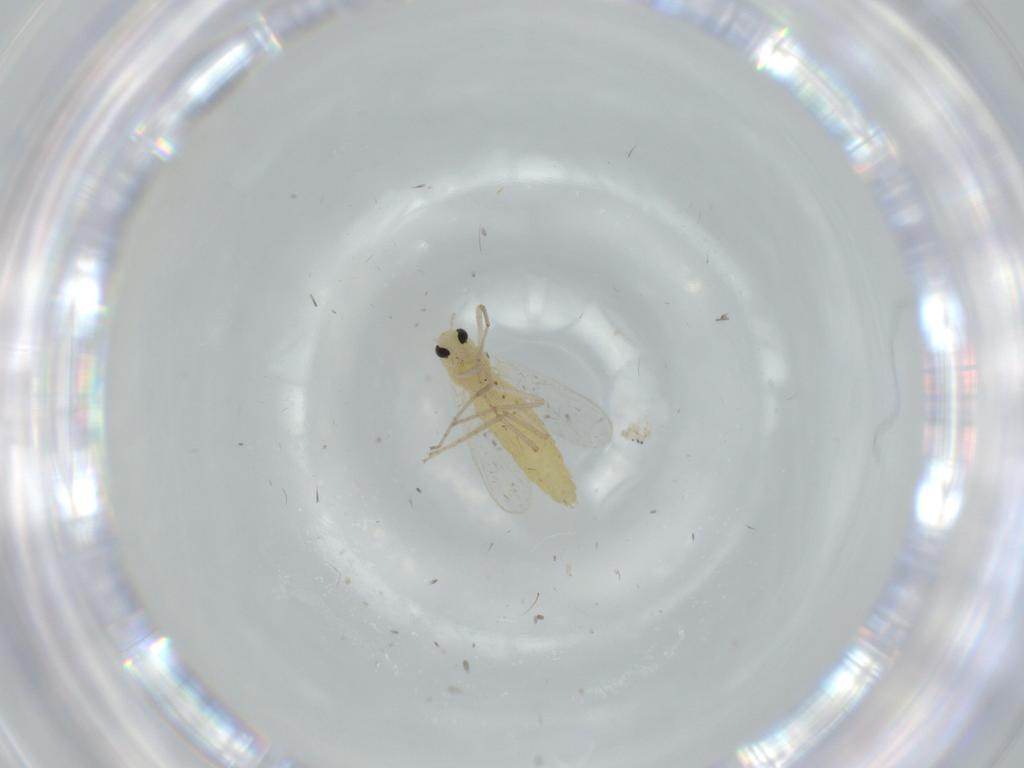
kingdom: Animalia
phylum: Arthropoda
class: Insecta
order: Diptera
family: Chironomidae
